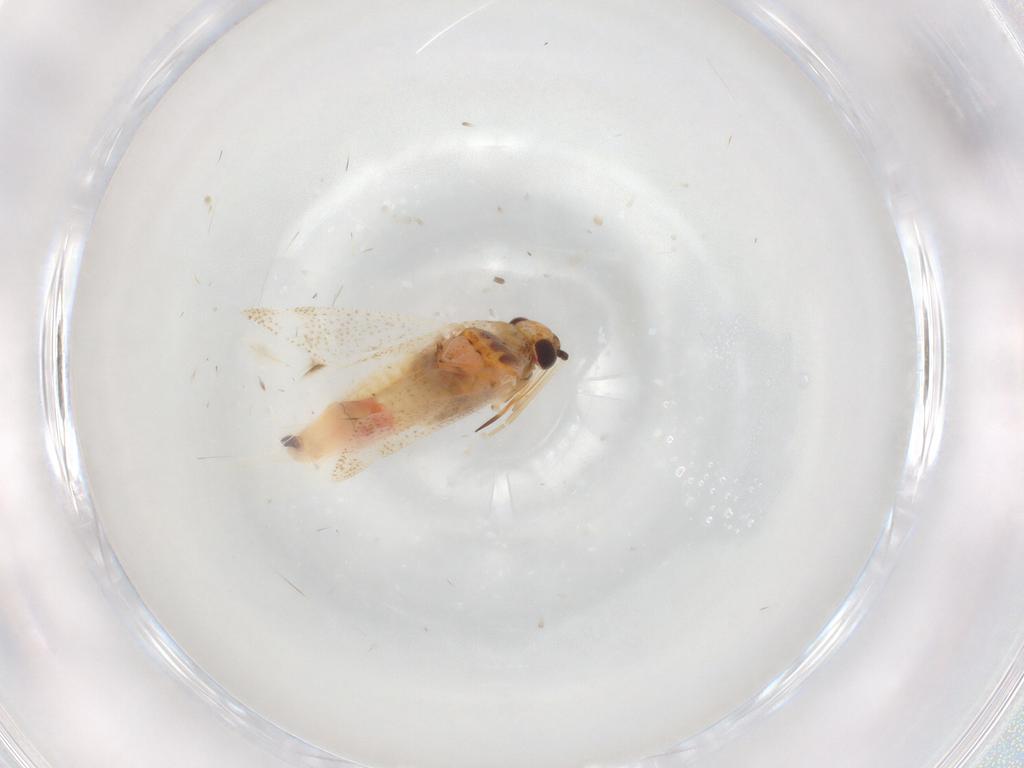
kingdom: Animalia
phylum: Arthropoda
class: Insecta
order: Hemiptera
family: Miridae
